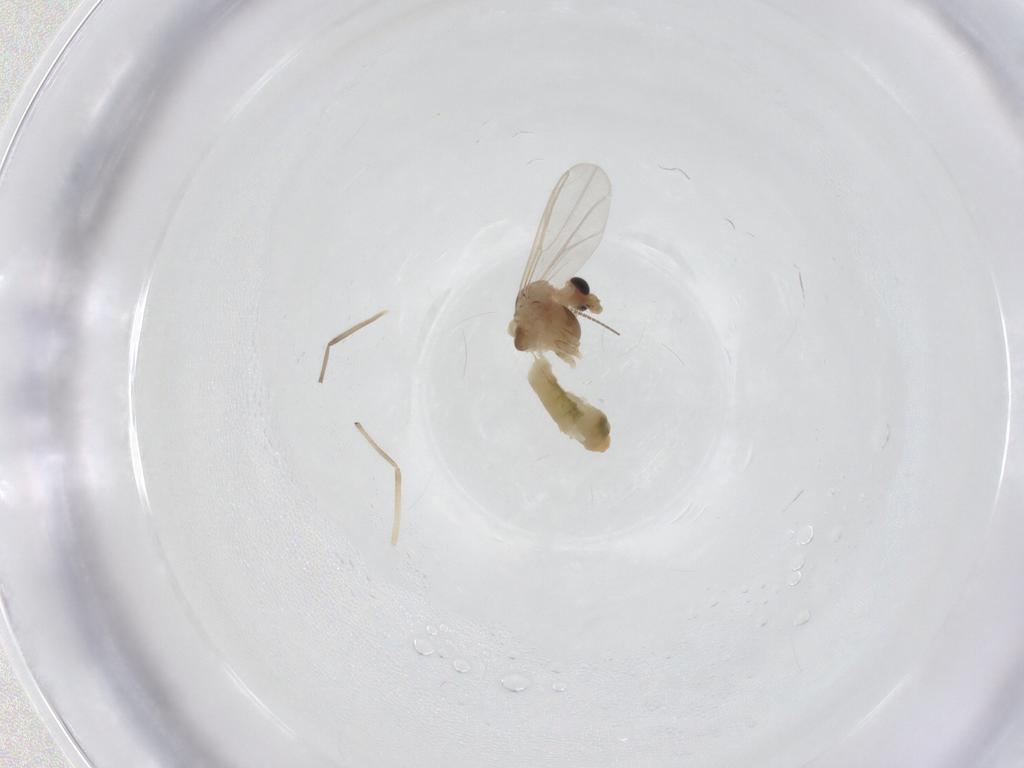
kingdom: Animalia
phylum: Arthropoda
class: Insecta
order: Diptera
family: Chironomidae
